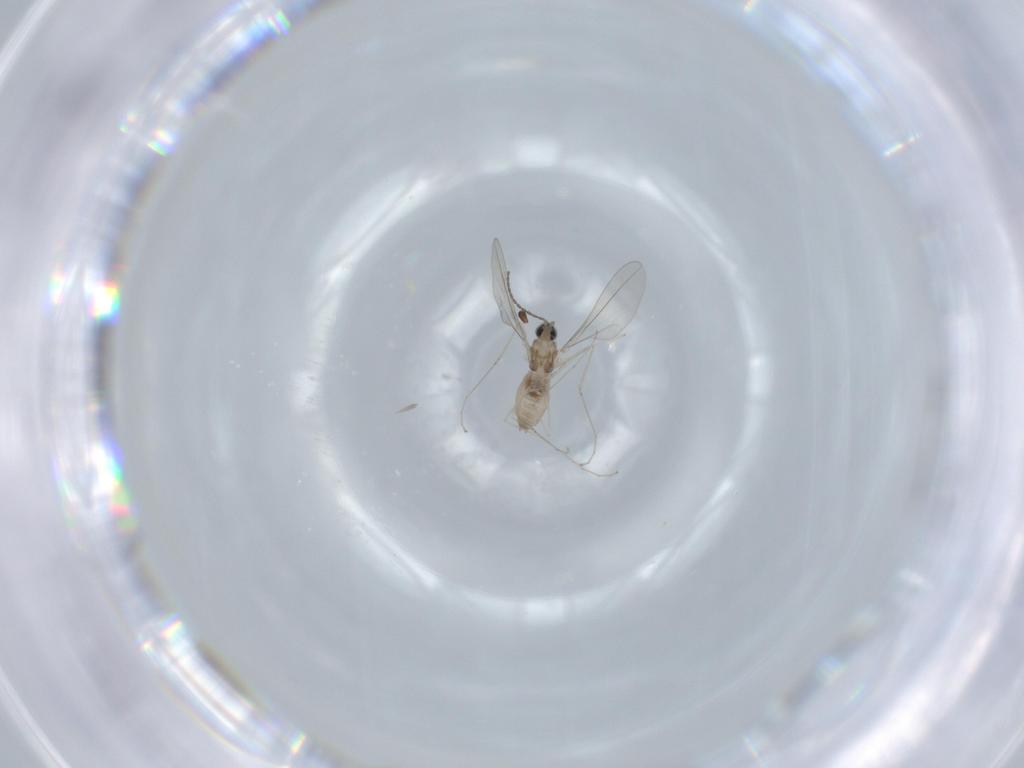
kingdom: Animalia
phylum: Arthropoda
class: Insecta
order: Diptera
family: Cecidomyiidae
